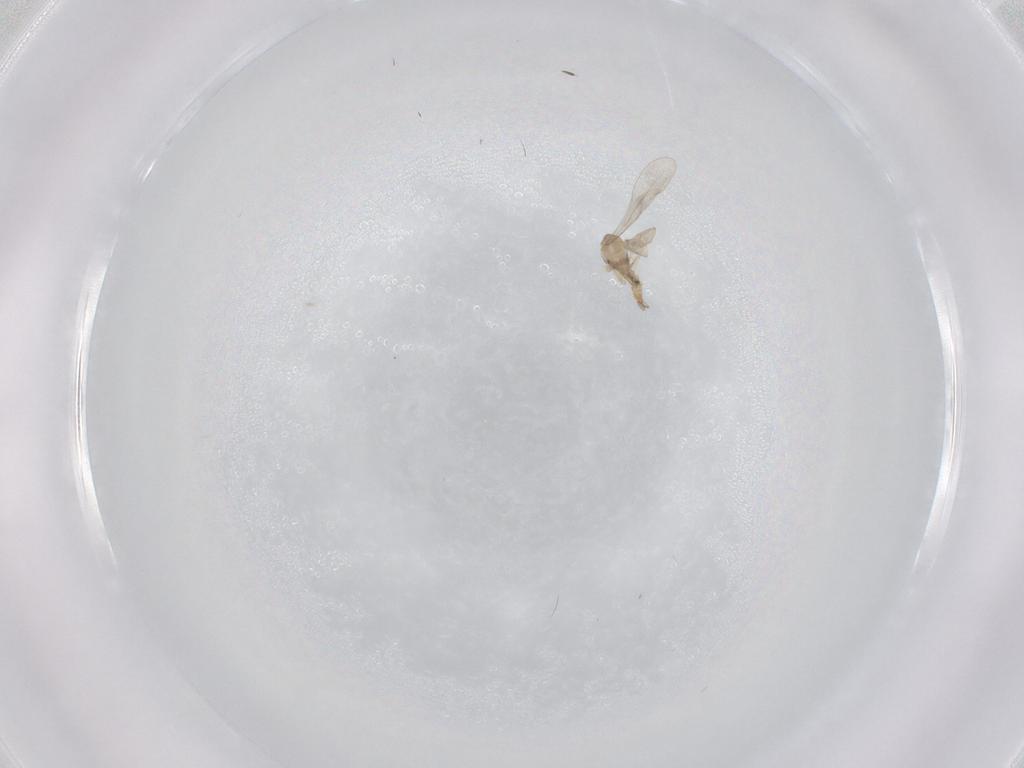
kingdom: Animalia
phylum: Arthropoda
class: Insecta
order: Diptera
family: Cecidomyiidae
